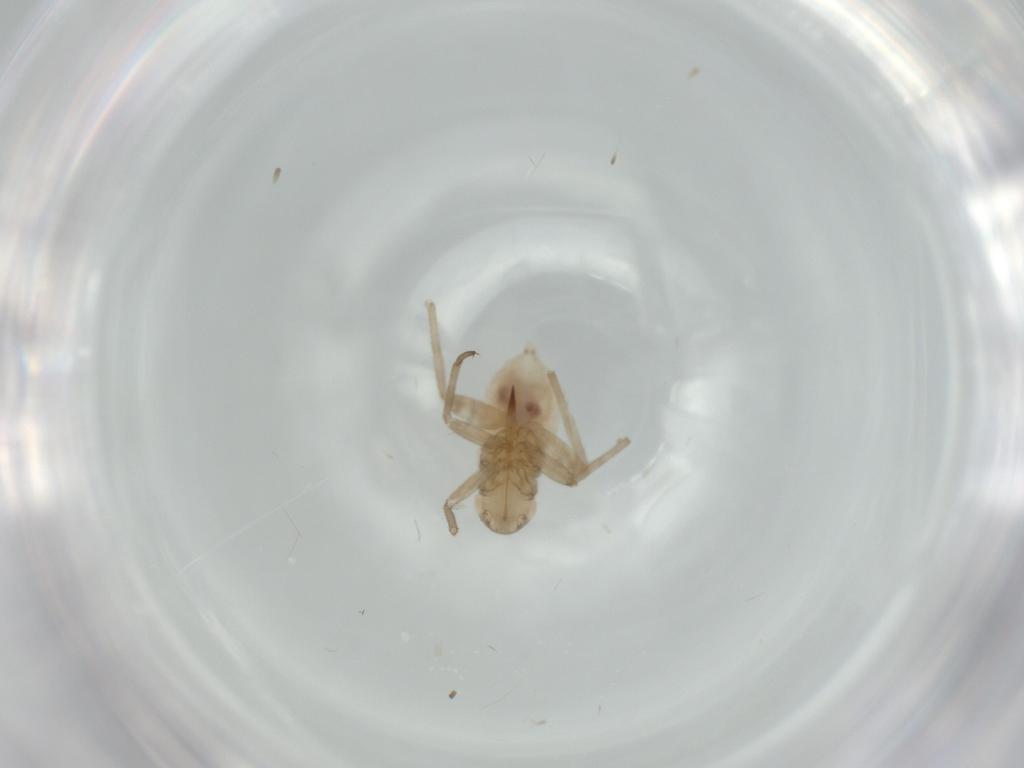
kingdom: Animalia
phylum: Arthropoda
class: Insecta
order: Hemiptera
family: Miridae
